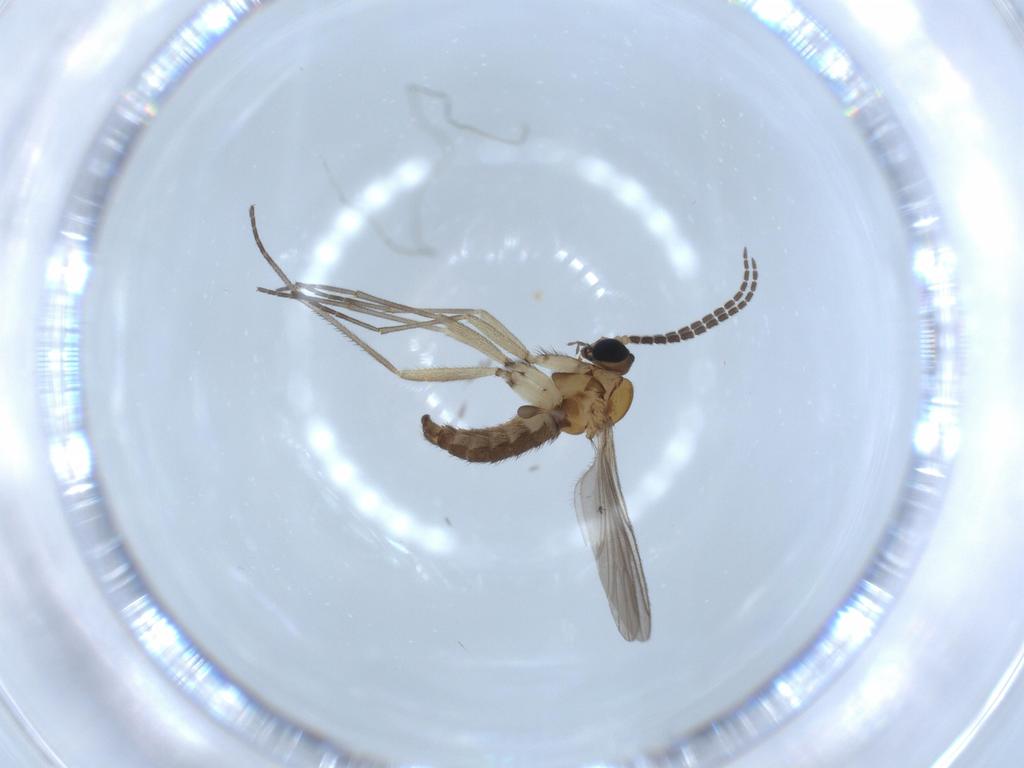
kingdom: Animalia
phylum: Arthropoda
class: Insecta
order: Diptera
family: Sciaridae
